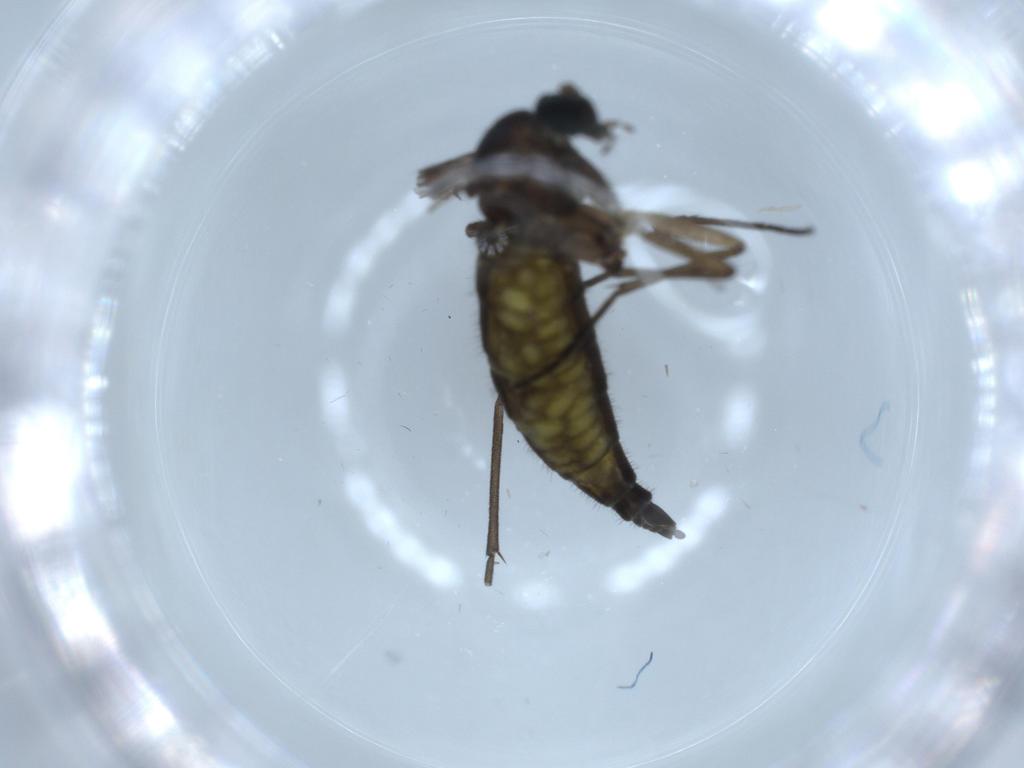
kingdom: Animalia
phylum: Arthropoda
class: Insecta
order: Diptera
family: Sciaridae
